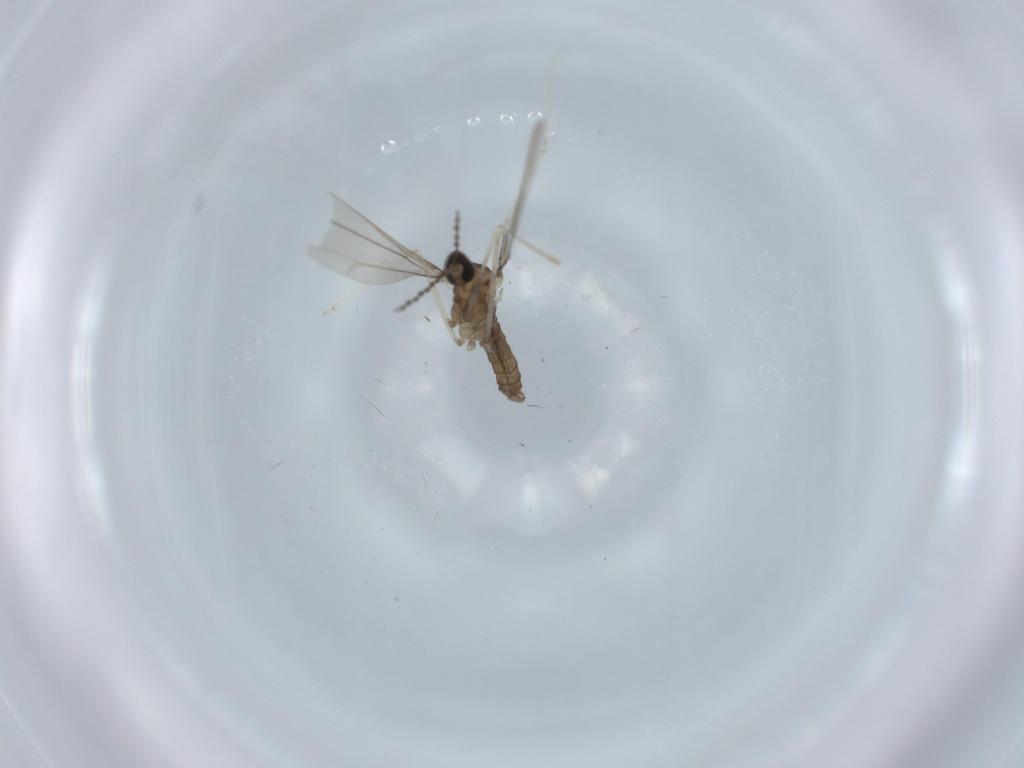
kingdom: Animalia
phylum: Arthropoda
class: Insecta
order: Diptera
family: Cecidomyiidae
